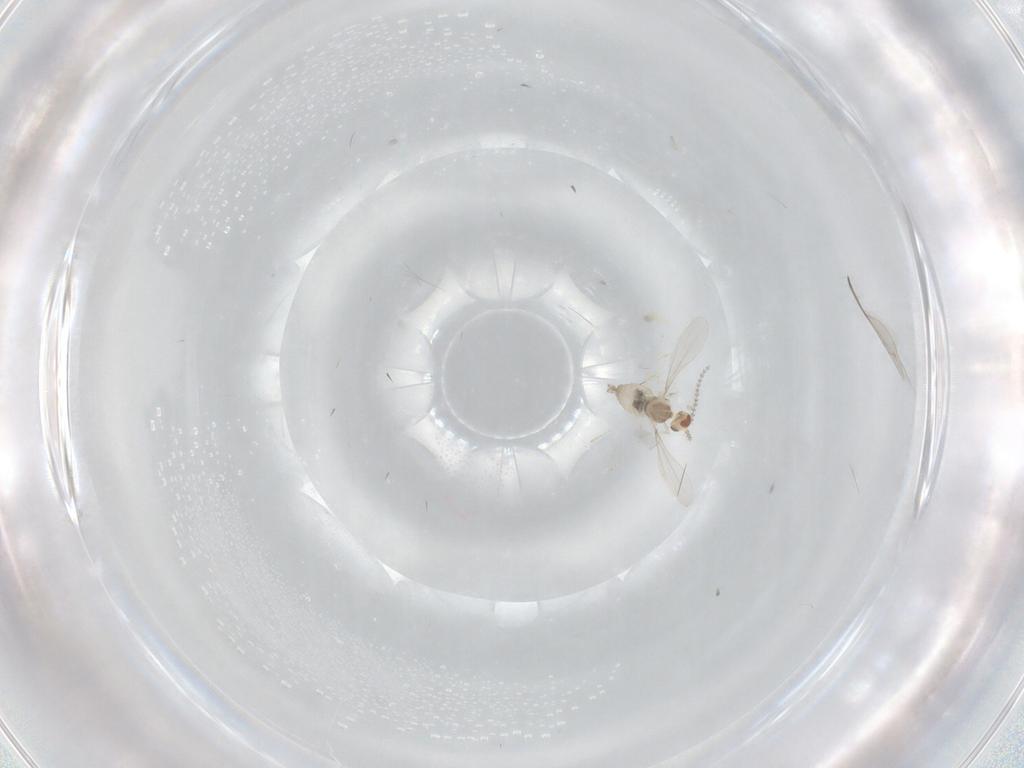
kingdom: Animalia
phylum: Arthropoda
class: Insecta
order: Diptera
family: Cecidomyiidae
